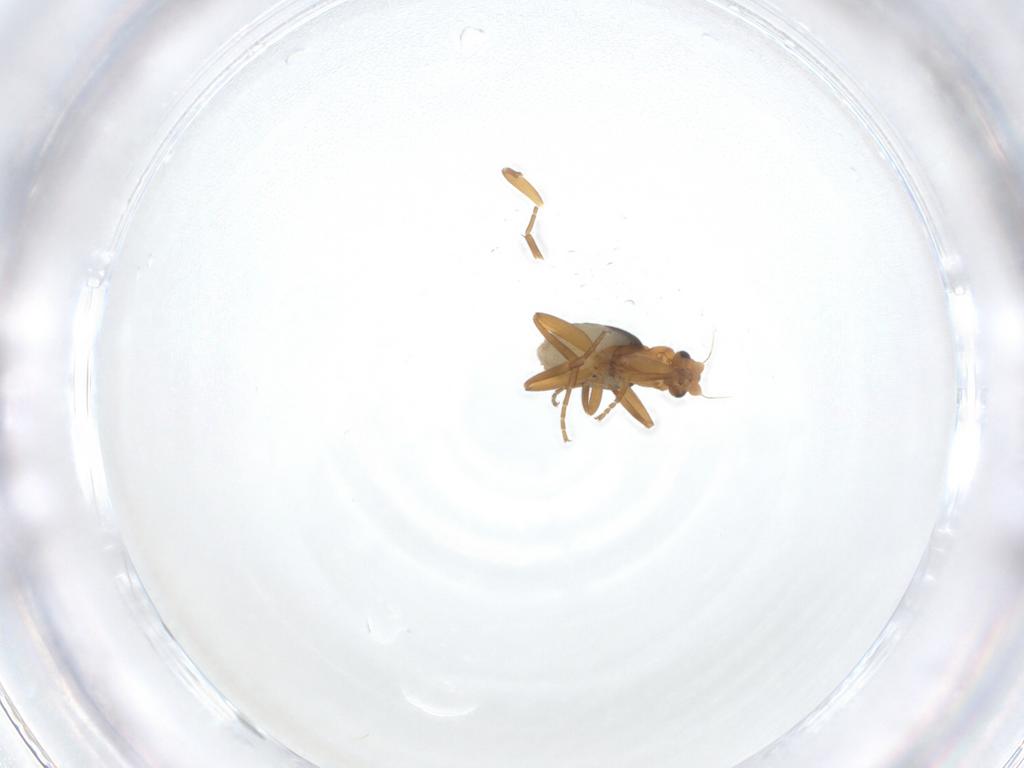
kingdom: Animalia
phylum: Arthropoda
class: Insecta
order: Diptera
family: Phoridae
